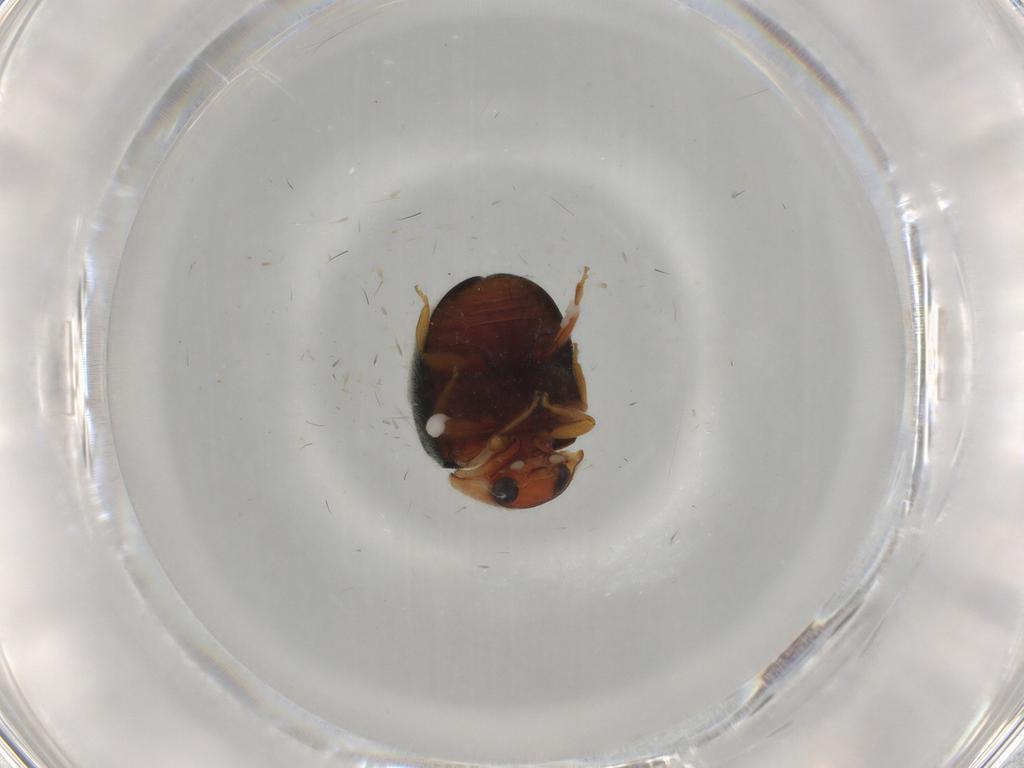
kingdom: Animalia
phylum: Arthropoda
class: Insecta
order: Coleoptera
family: Coccinellidae
